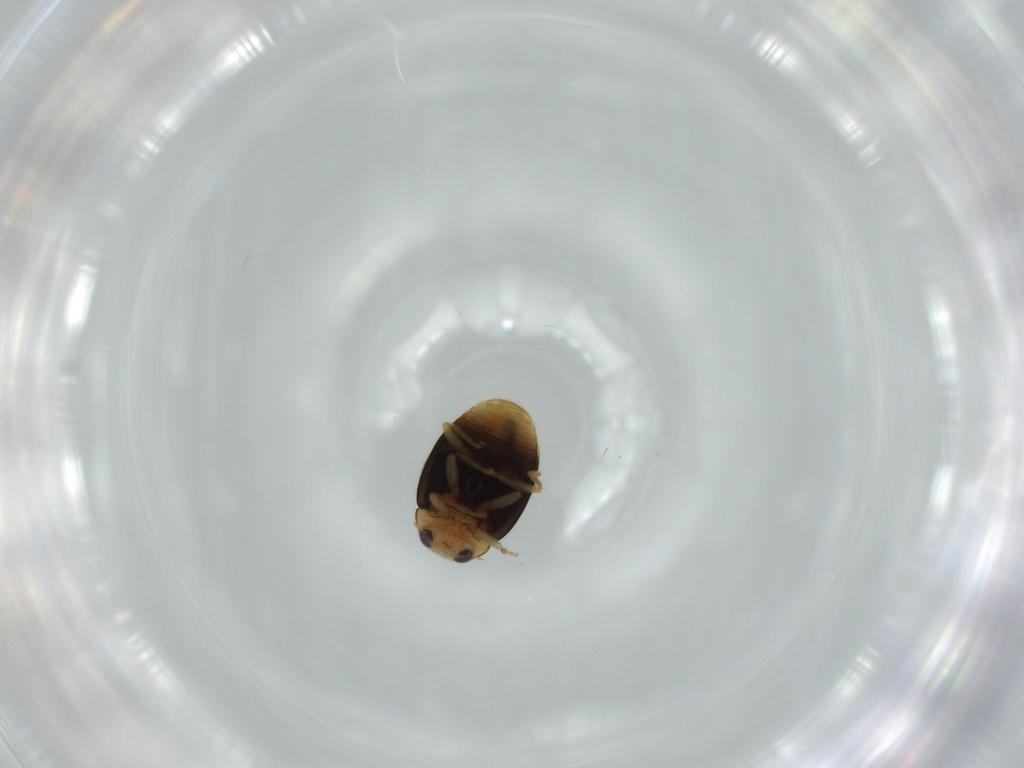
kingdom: Animalia
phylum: Arthropoda
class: Insecta
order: Coleoptera
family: Coccinellidae
